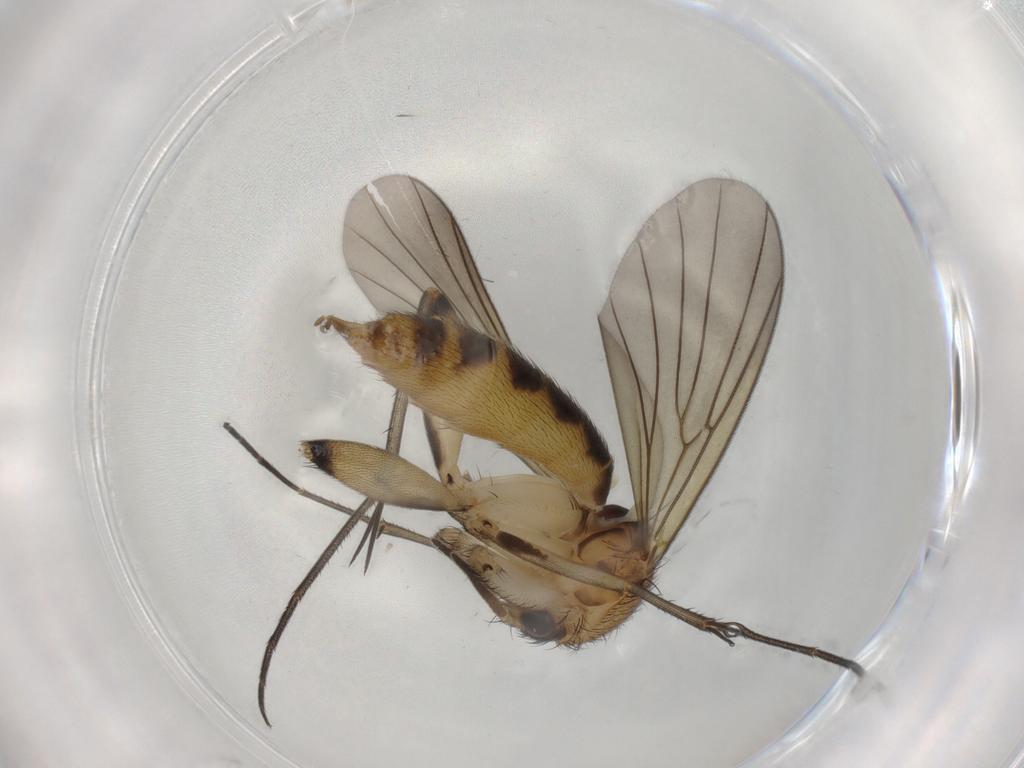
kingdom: Animalia
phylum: Arthropoda
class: Insecta
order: Diptera
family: Mycetophilidae
